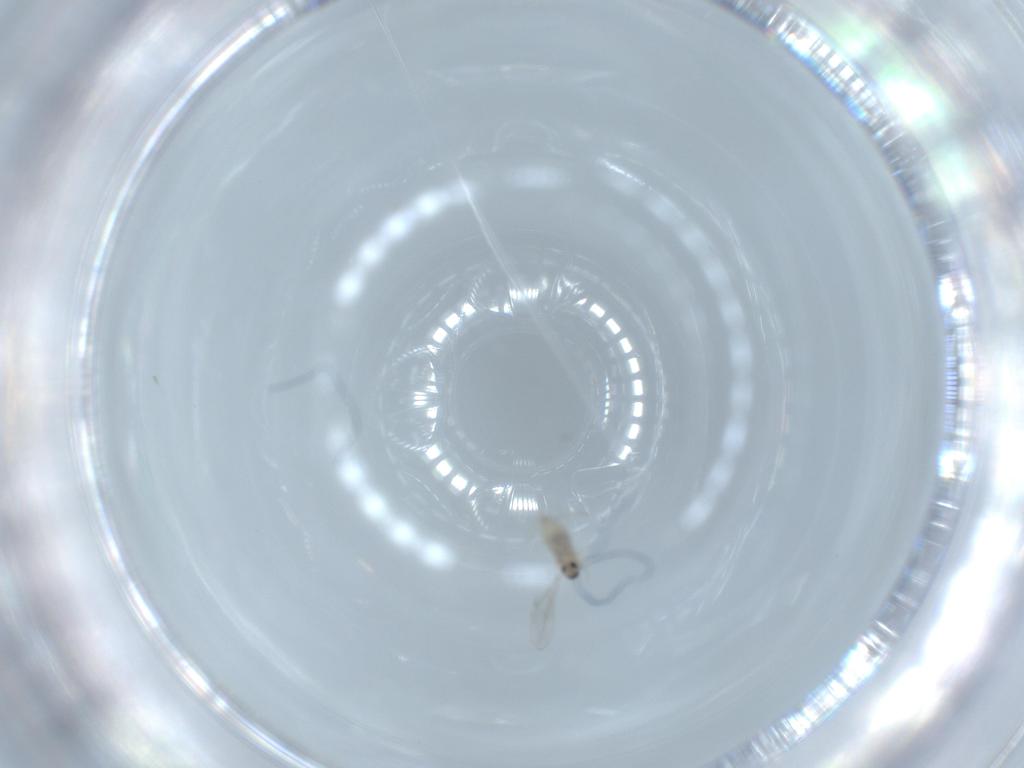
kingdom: Animalia
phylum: Arthropoda
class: Insecta
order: Diptera
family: Cecidomyiidae
